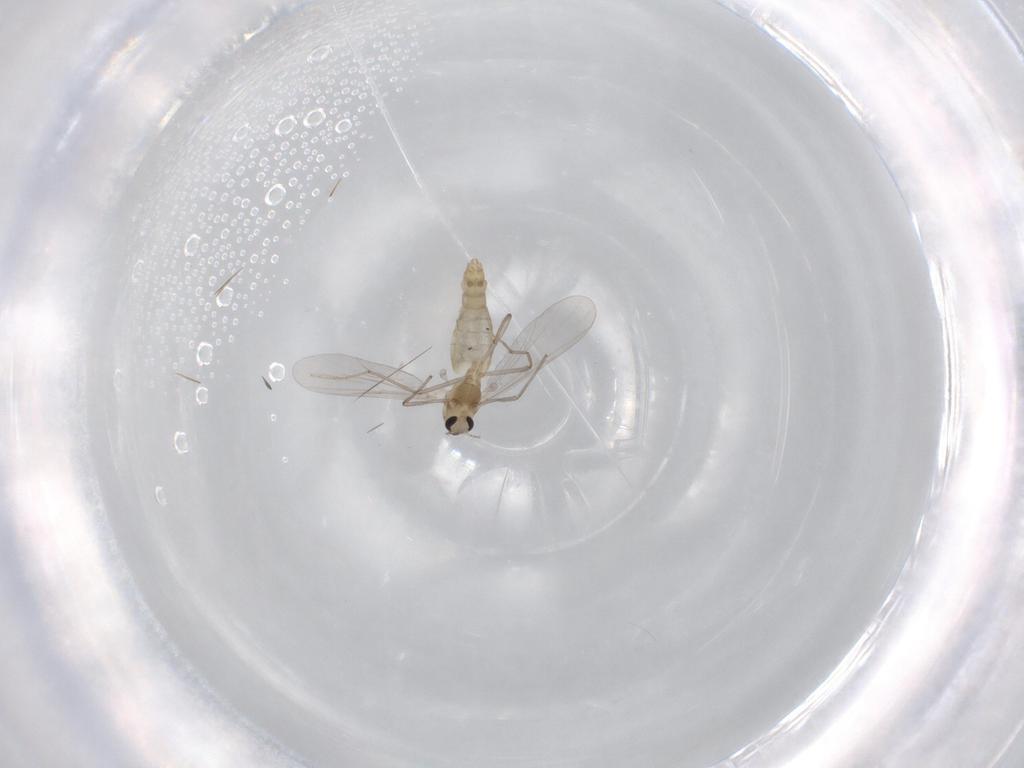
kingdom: Animalia
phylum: Arthropoda
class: Insecta
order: Diptera
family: Chironomidae
